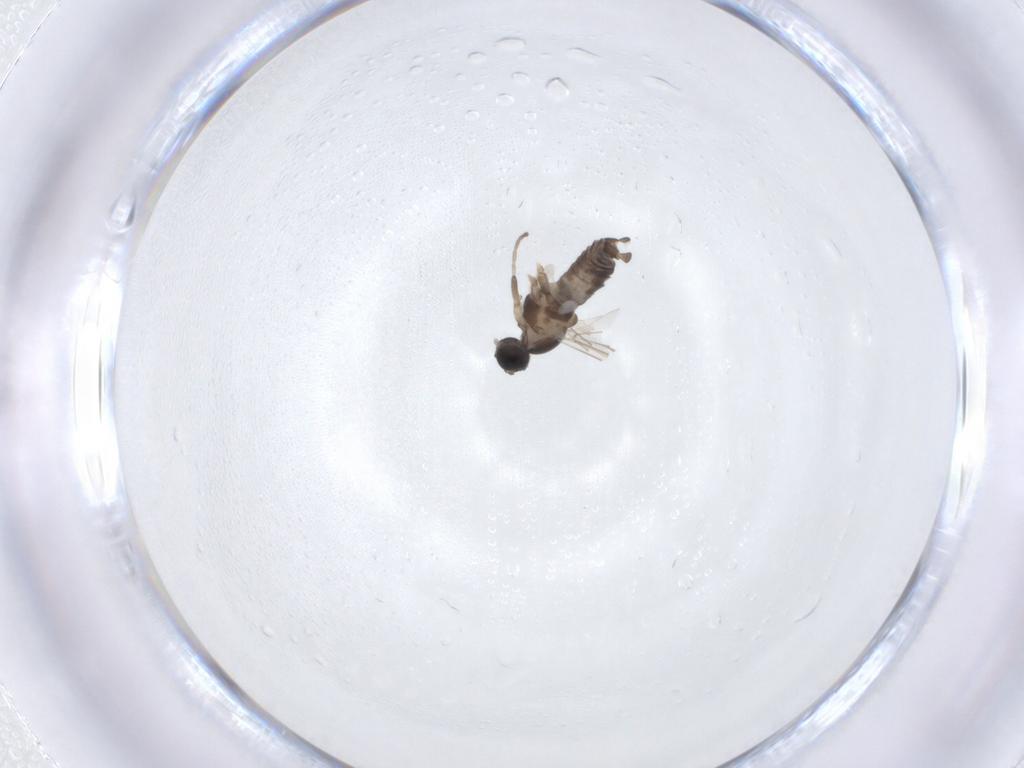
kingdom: Animalia
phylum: Arthropoda
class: Insecta
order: Diptera
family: Cecidomyiidae
